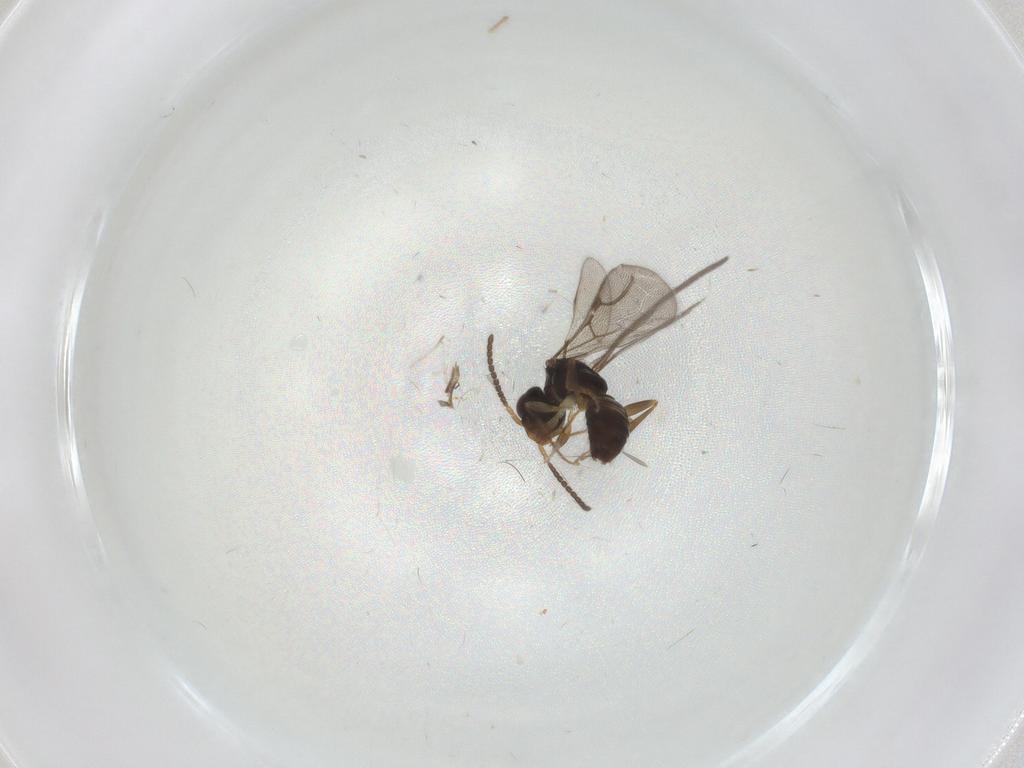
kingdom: Animalia
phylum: Arthropoda
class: Insecta
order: Hymenoptera
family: Bethylidae
